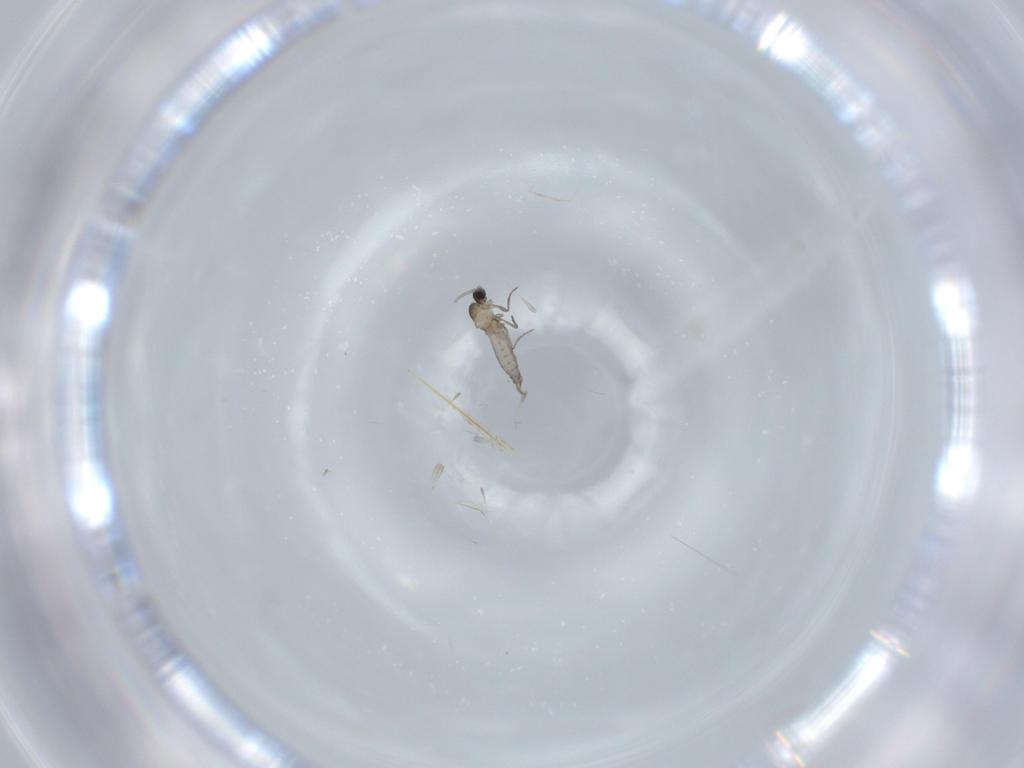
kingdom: Animalia
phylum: Arthropoda
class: Insecta
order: Diptera
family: Cecidomyiidae
